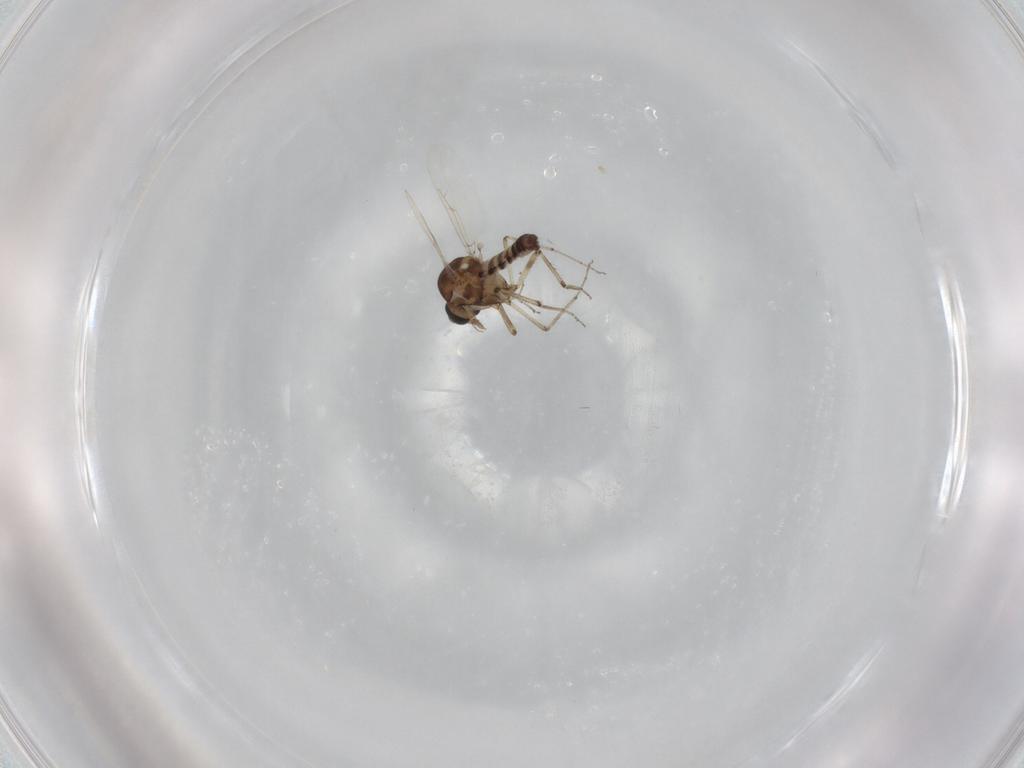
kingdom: Animalia
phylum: Arthropoda
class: Insecta
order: Diptera
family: Ceratopogonidae
